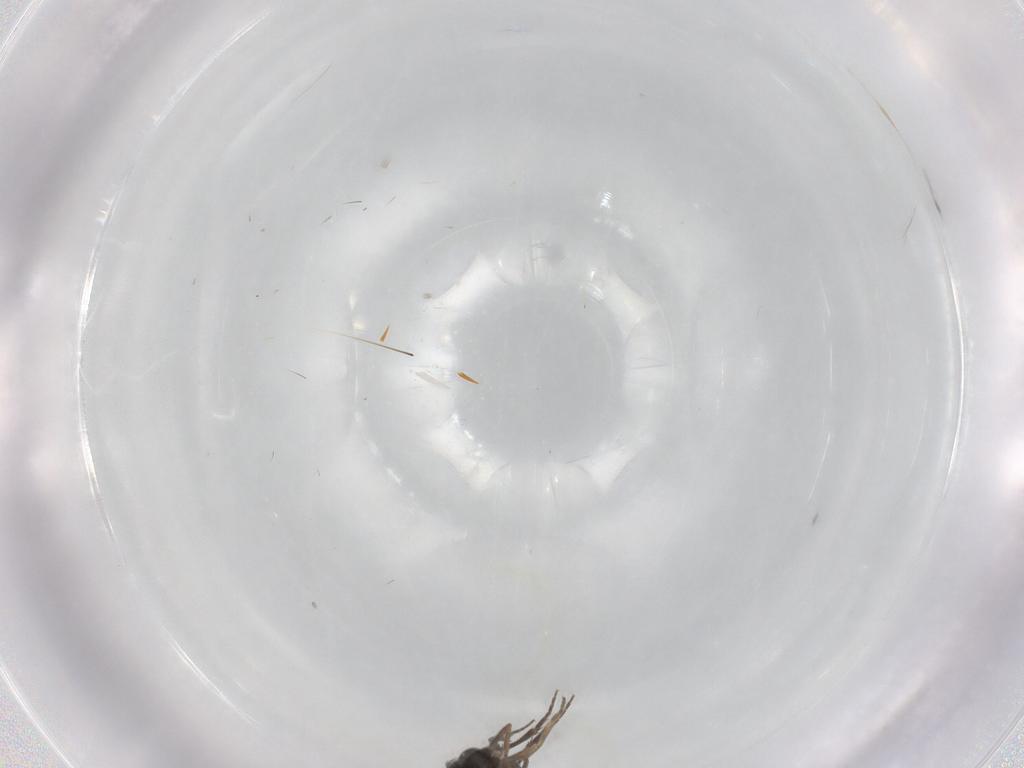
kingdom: Animalia
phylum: Arthropoda
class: Insecta
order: Diptera
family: Phoridae
